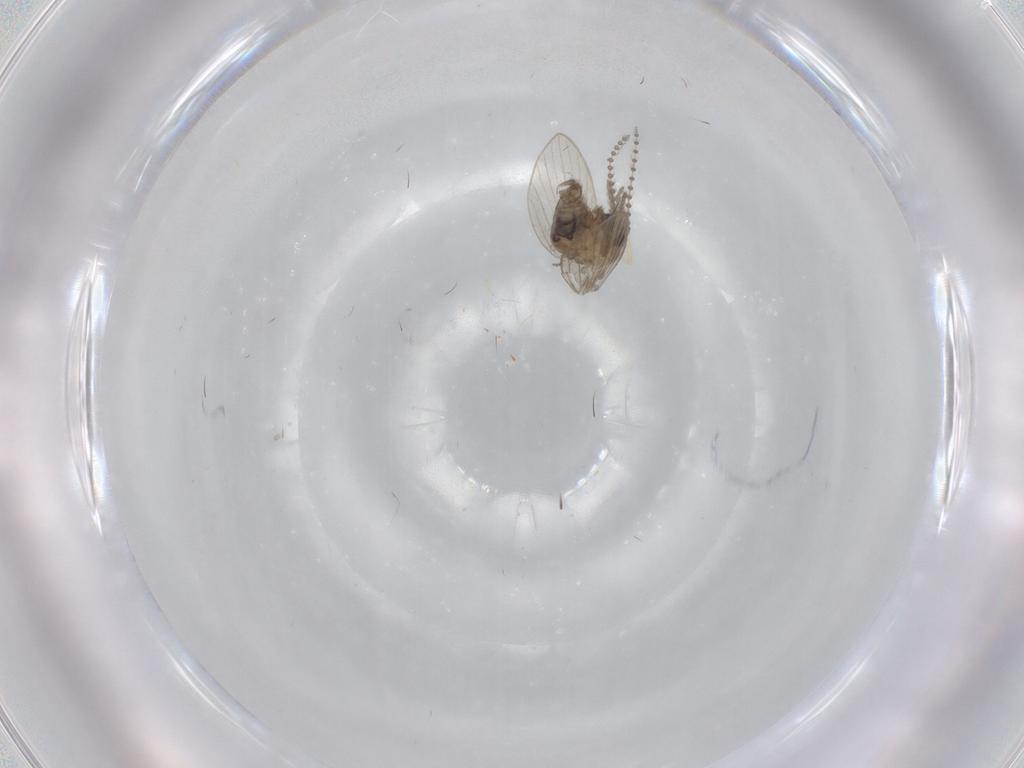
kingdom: Animalia
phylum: Arthropoda
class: Insecta
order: Diptera
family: Psychodidae
